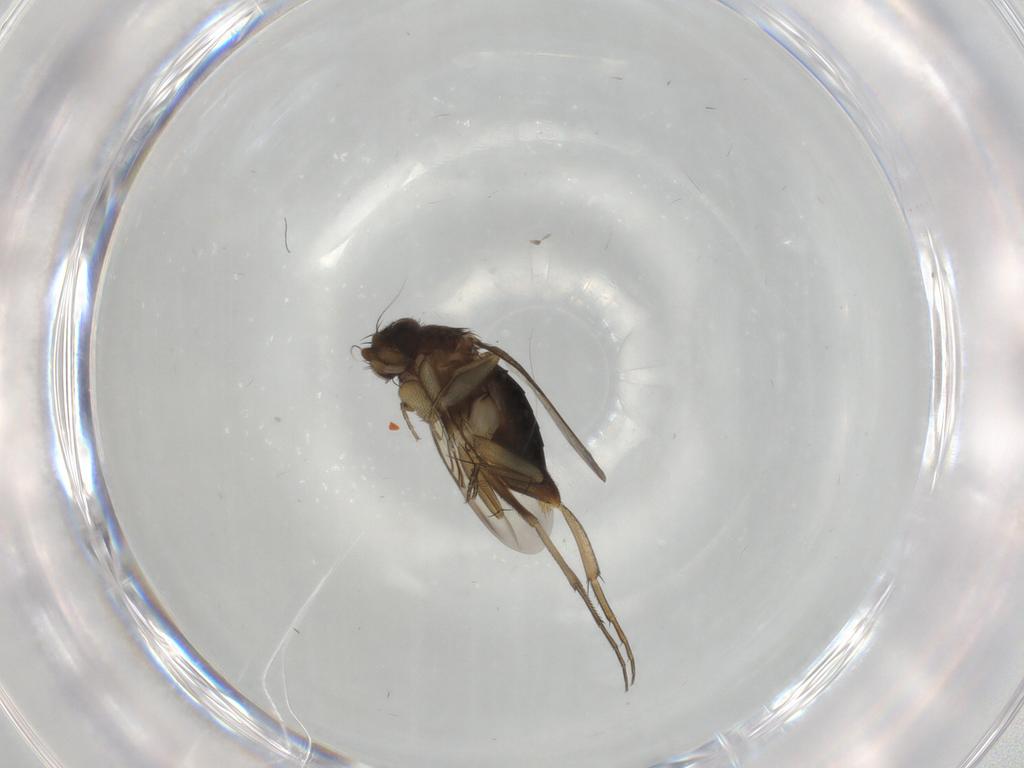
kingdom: Animalia
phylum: Arthropoda
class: Insecta
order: Diptera
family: Phoridae
